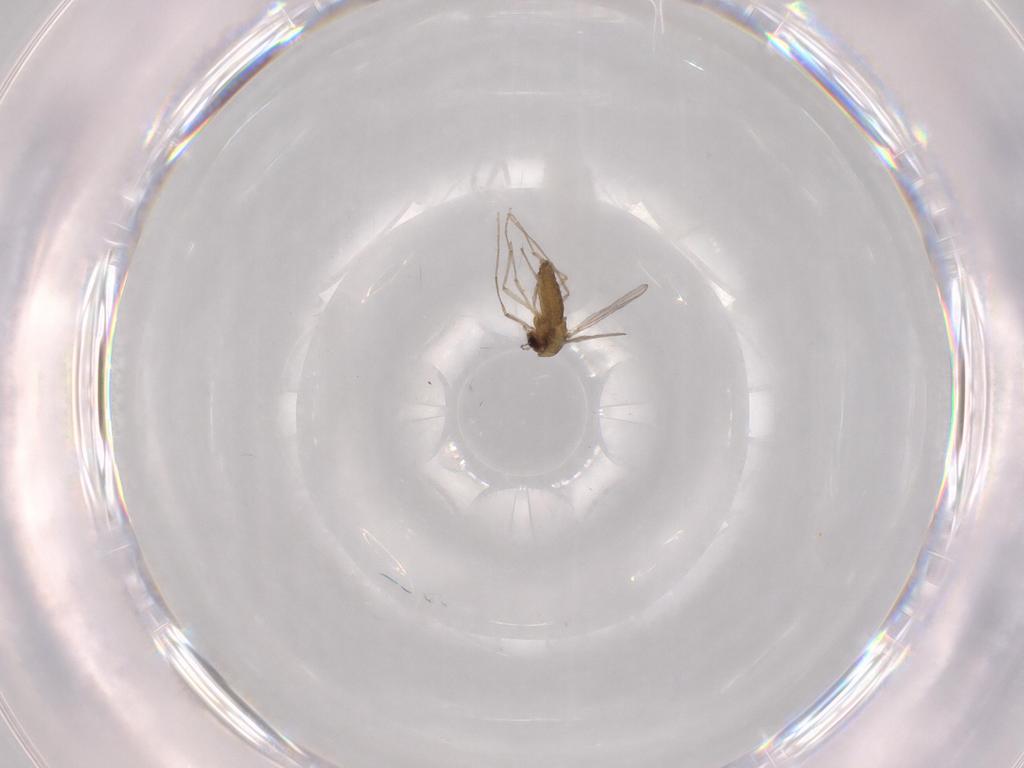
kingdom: Animalia
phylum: Arthropoda
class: Insecta
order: Diptera
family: Chironomidae
